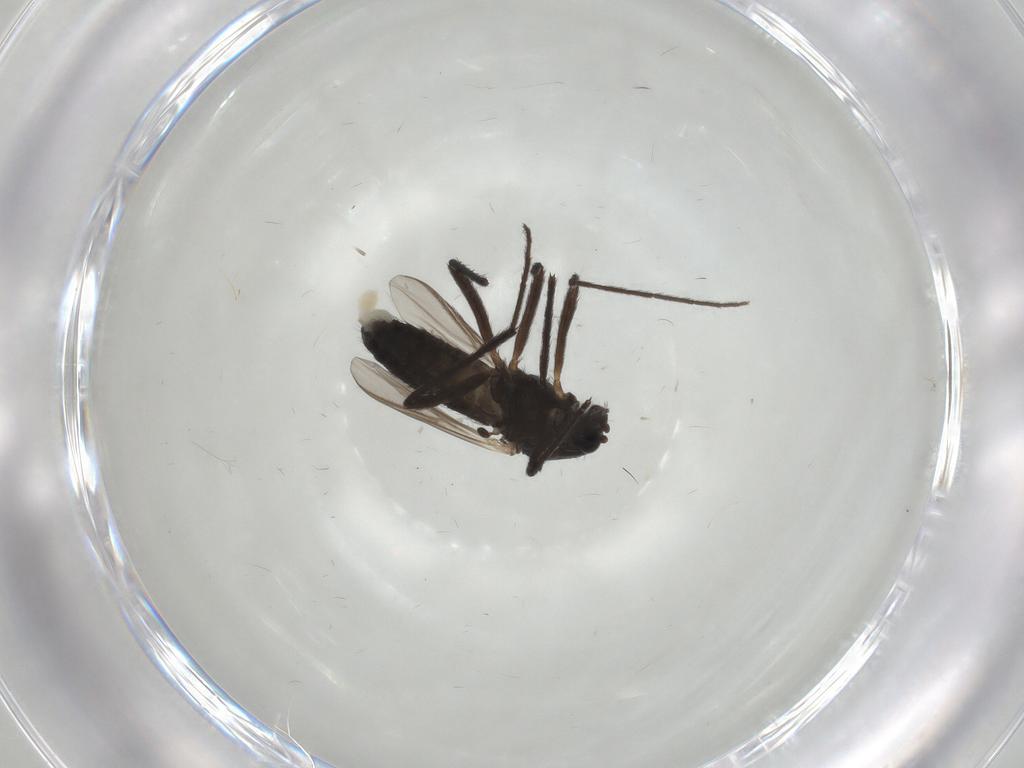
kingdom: Animalia
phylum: Arthropoda
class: Insecta
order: Diptera
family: Chironomidae
